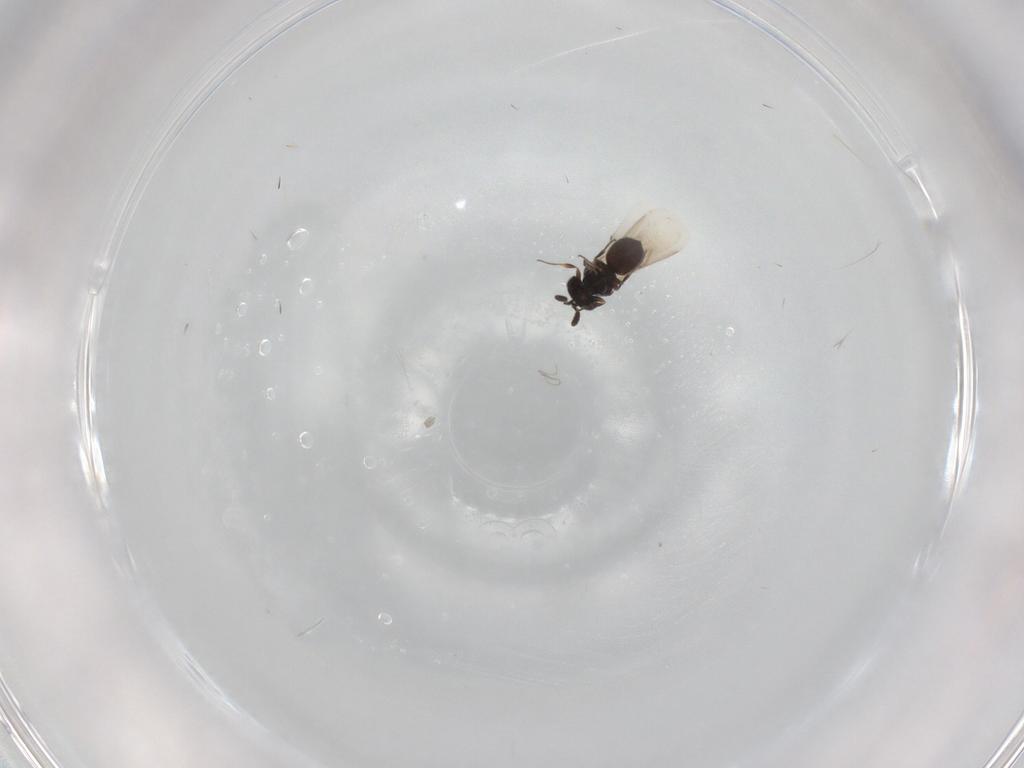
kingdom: Animalia
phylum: Arthropoda
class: Insecta
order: Hymenoptera
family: Scelionidae
